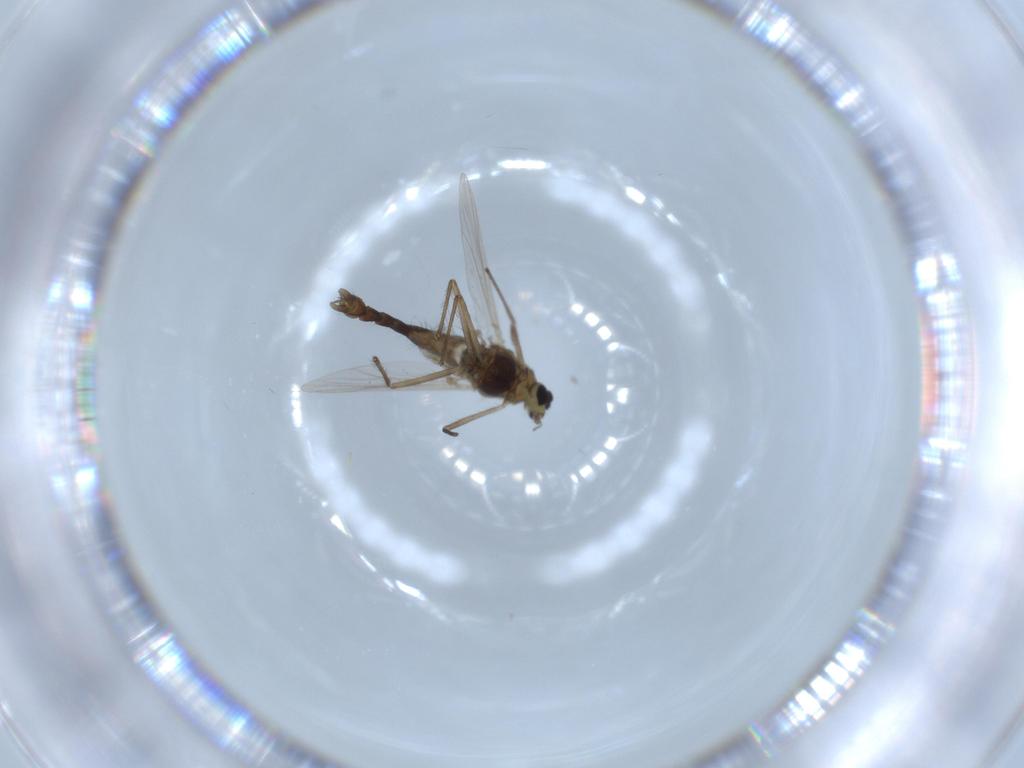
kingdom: Animalia
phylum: Arthropoda
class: Insecta
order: Diptera
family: Chironomidae
